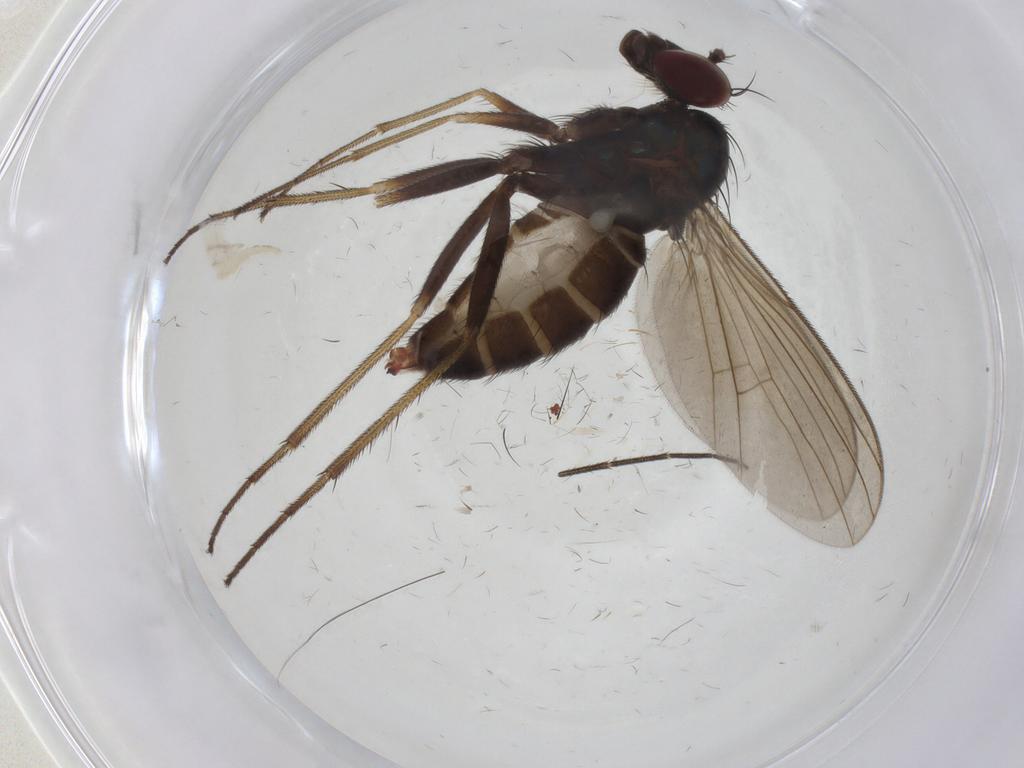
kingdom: Animalia
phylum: Arthropoda
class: Insecta
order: Diptera
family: Dolichopodidae
